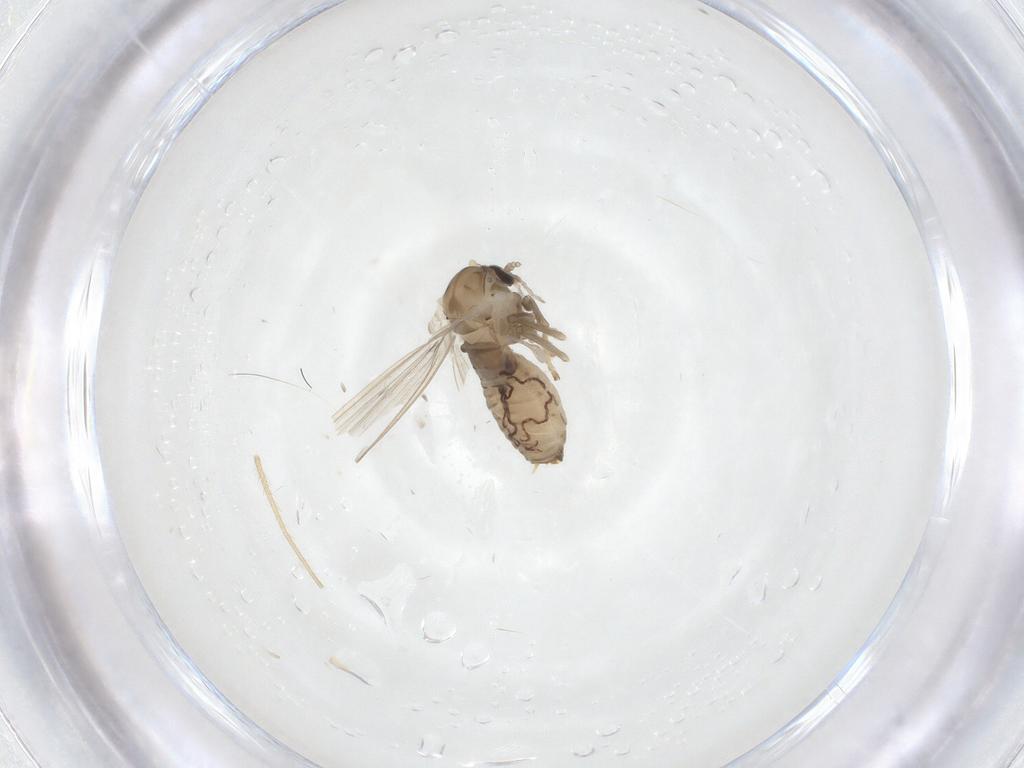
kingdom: Animalia
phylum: Arthropoda
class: Insecta
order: Diptera
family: Psychodidae
